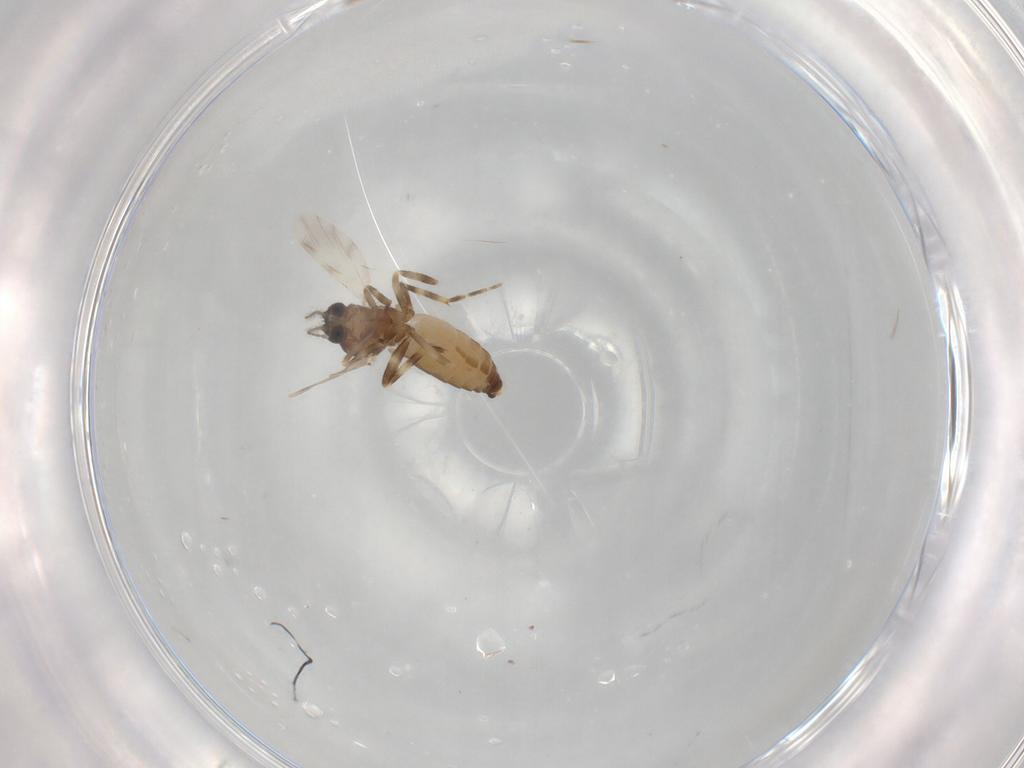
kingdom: Animalia
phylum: Arthropoda
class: Insecta
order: Diptera
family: Ceratopogonidae
